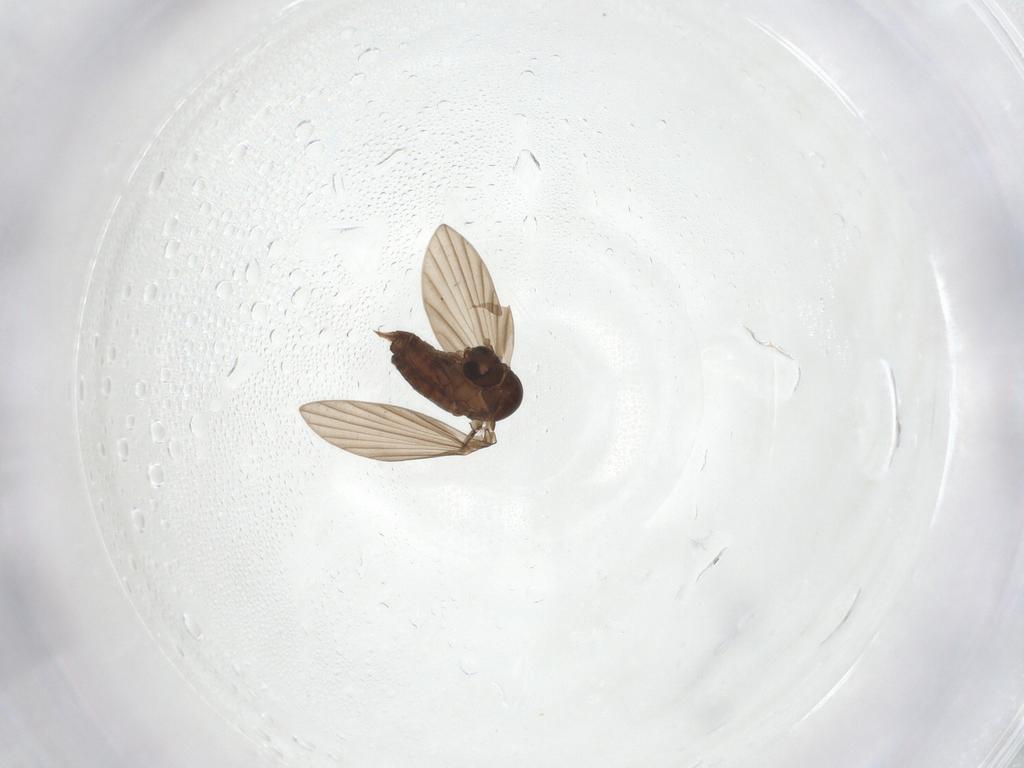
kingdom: Animalia
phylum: Arthropoda
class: Insecta
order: Diptera
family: Psychodidae
